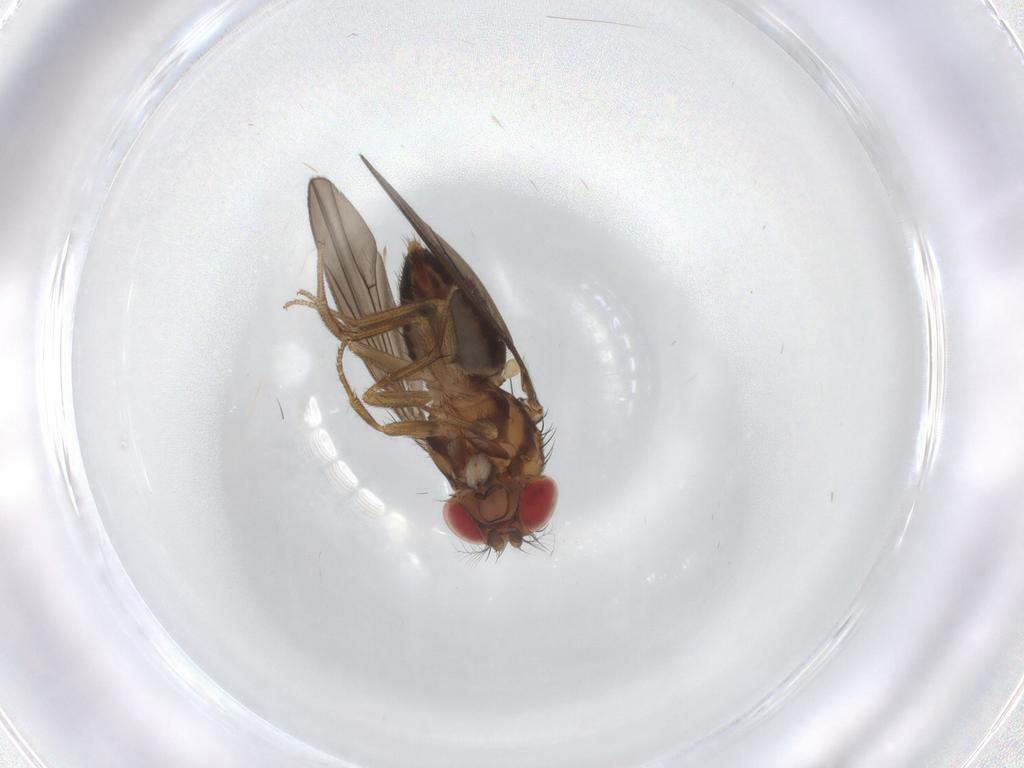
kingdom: Animalia
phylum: Arthropoda
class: Insecta
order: Diptera
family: Drosophilidae
